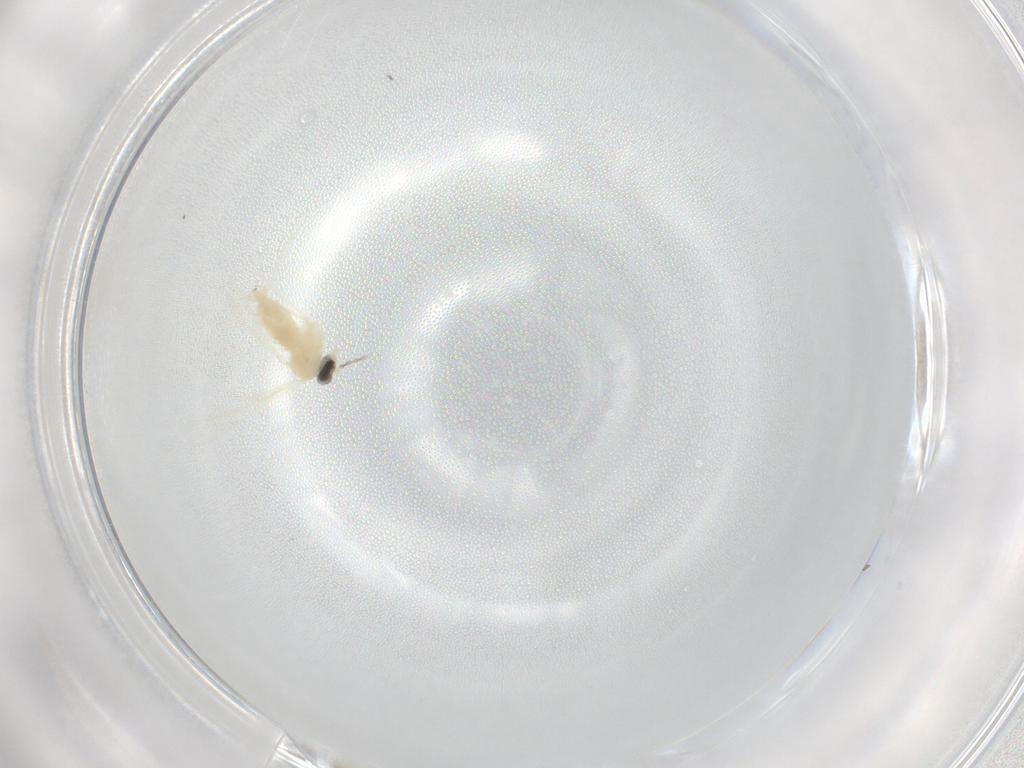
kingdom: Animalia
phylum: Arthropoda
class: Insecta
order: Diptera
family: Cecidomyiidae
